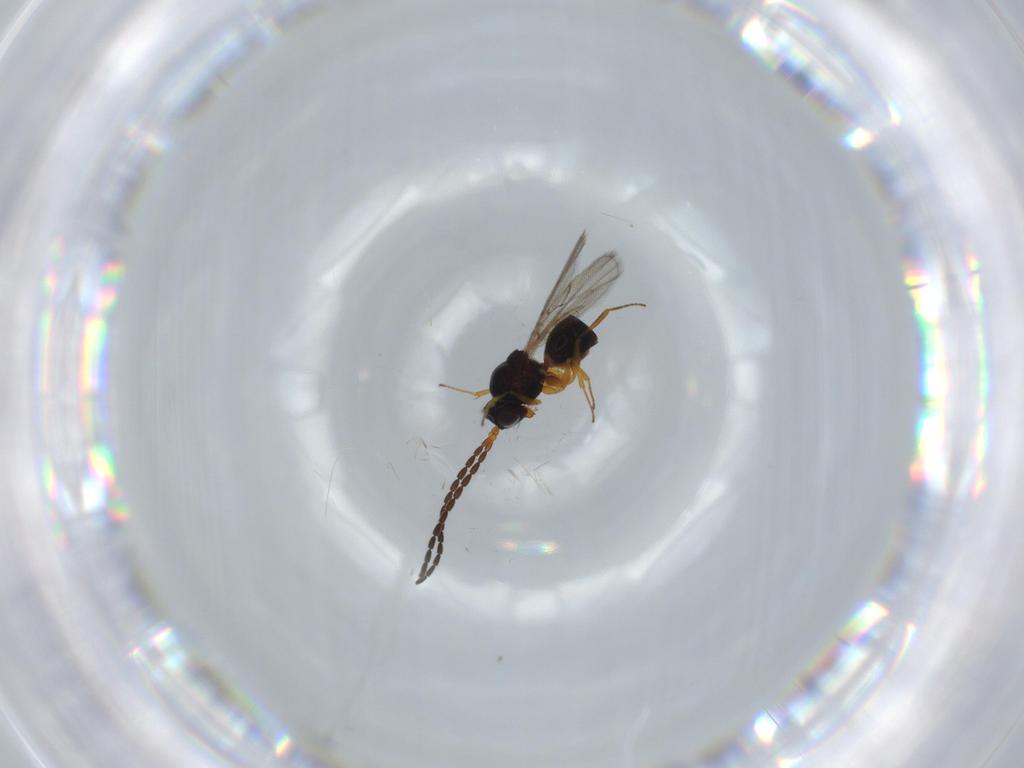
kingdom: Animalia
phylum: Arthropoda
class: Insecta
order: Hymenoptera
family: Figitidae
